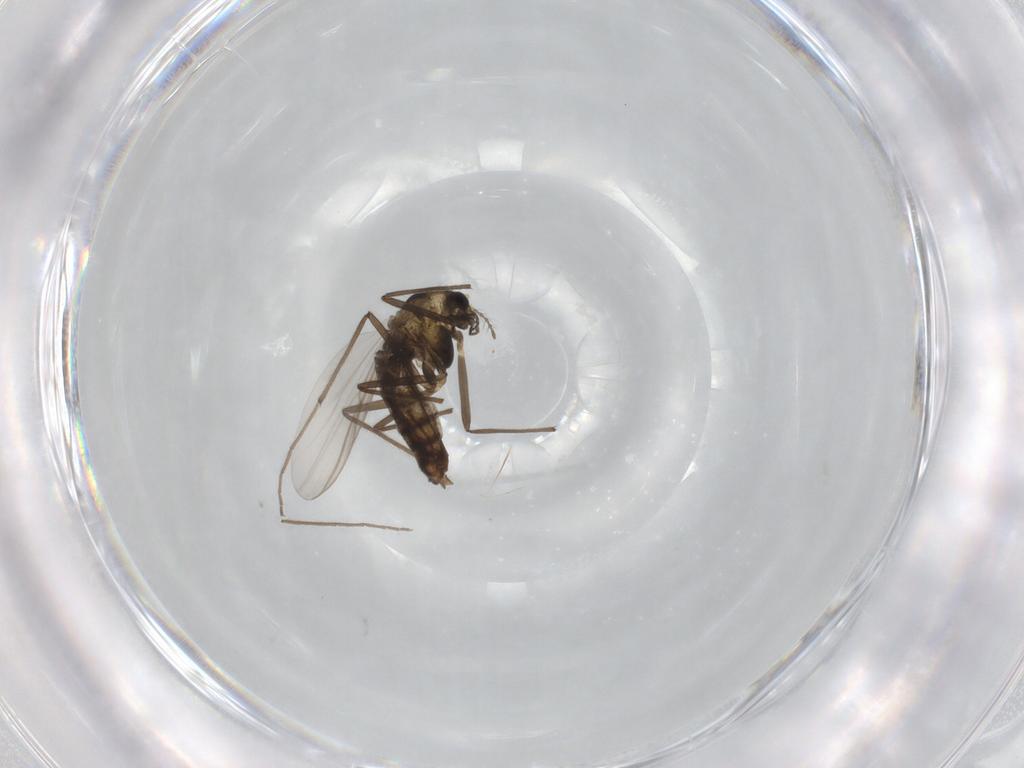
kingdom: Animalia
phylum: Arthropoda
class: Insecta
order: Diptera
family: Chironomidae
